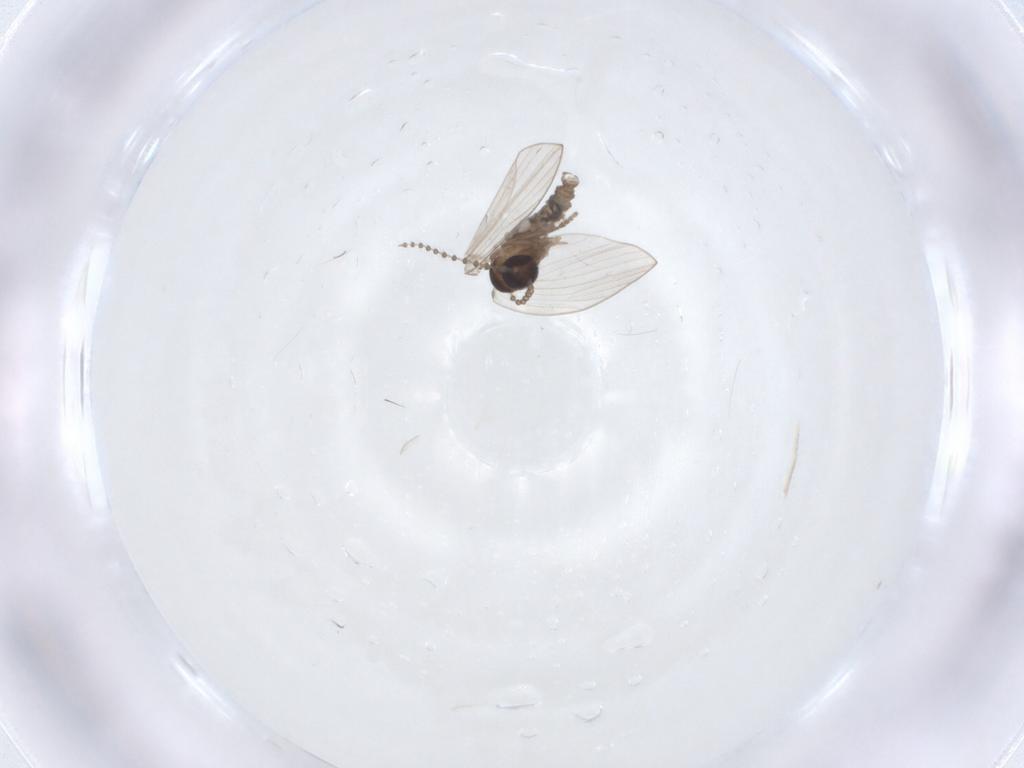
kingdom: Animalia
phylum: Arthropoda
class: Insecta
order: Diptera
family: Psychodidae
